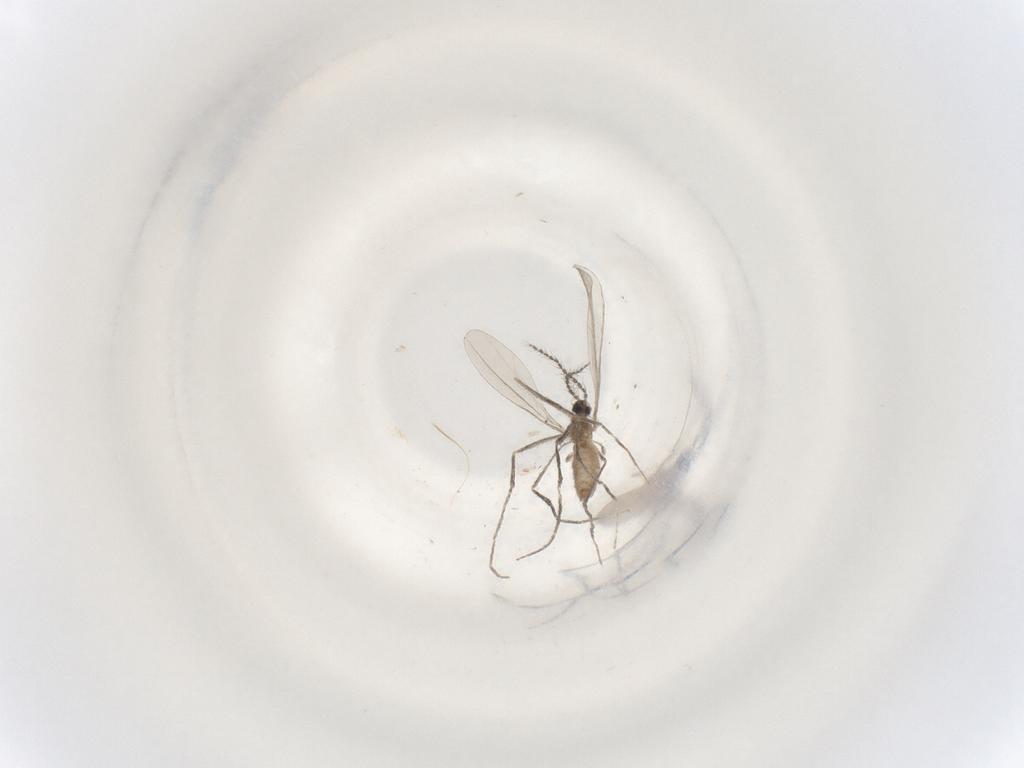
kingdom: Animalia
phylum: Arthropoda
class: Insecta
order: Diptera
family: Cecidomyiidae
